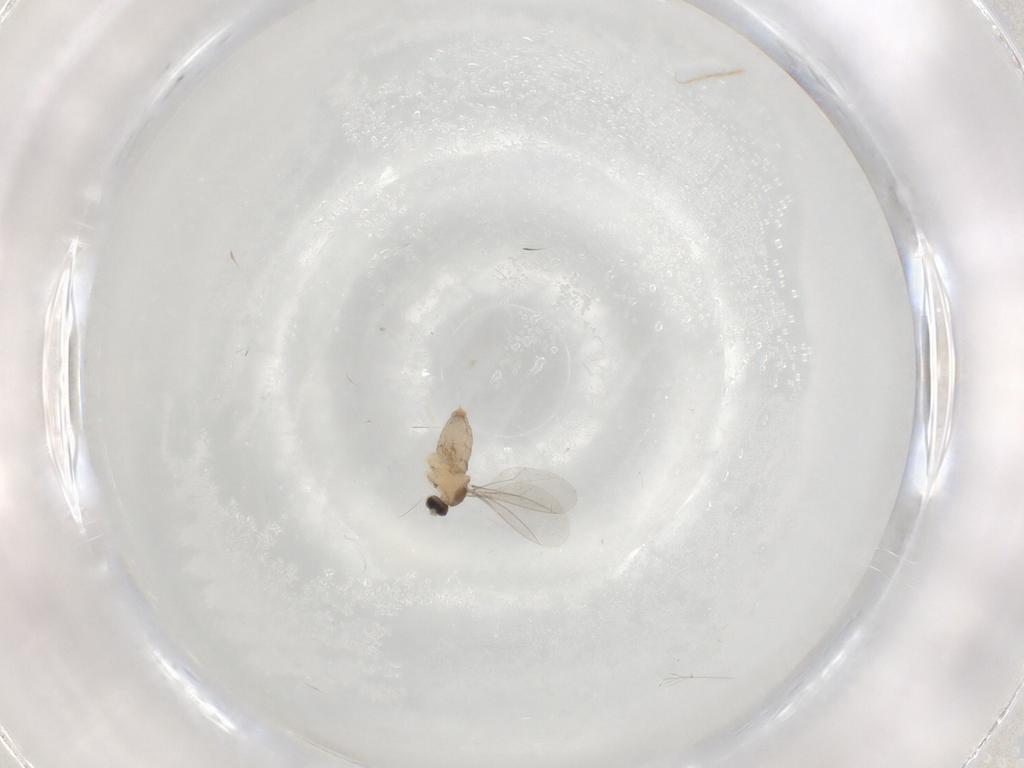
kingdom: Animalia
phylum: Arthropoda
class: Insecta
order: Diptera
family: Cecidomyiidae
